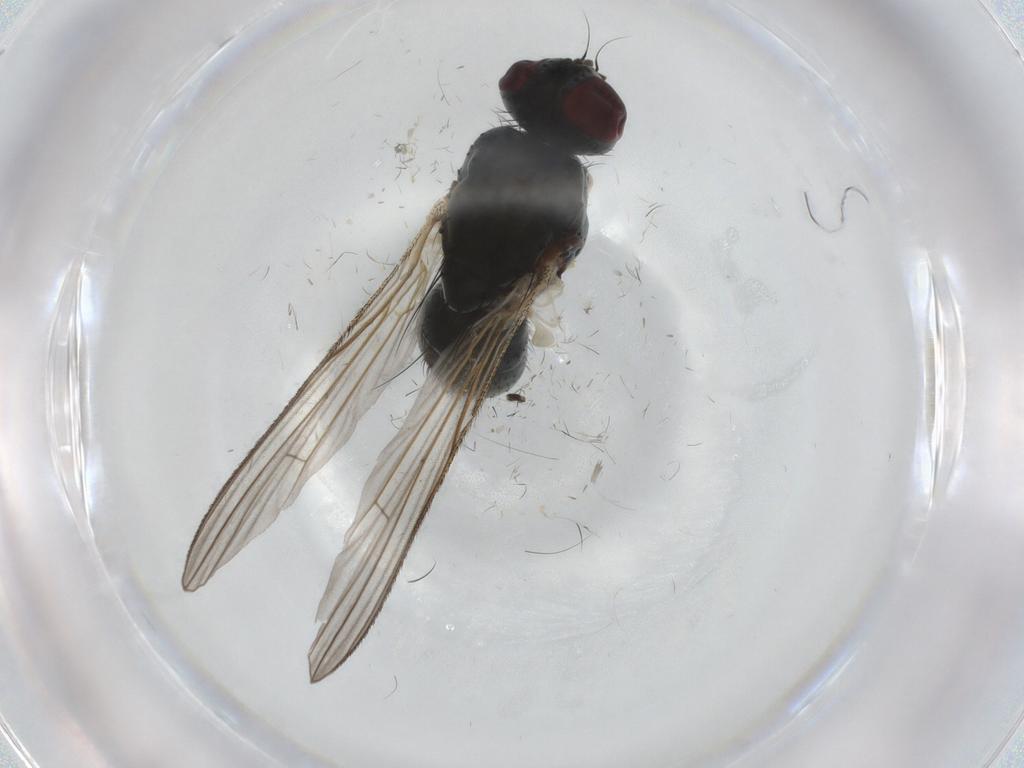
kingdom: Animalia
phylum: Arthropoda
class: Insecta
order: Diptera
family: Chironomidae
